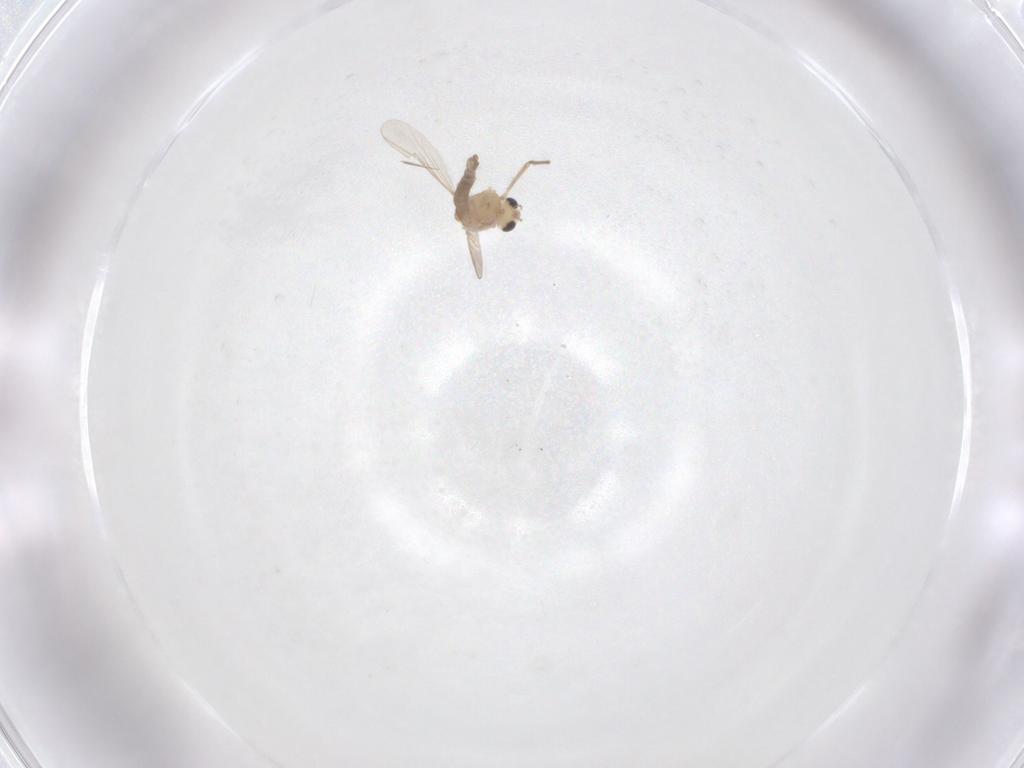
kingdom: Animalia
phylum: Arthropoda
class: Insecta
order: Diptera
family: Chironomidae
